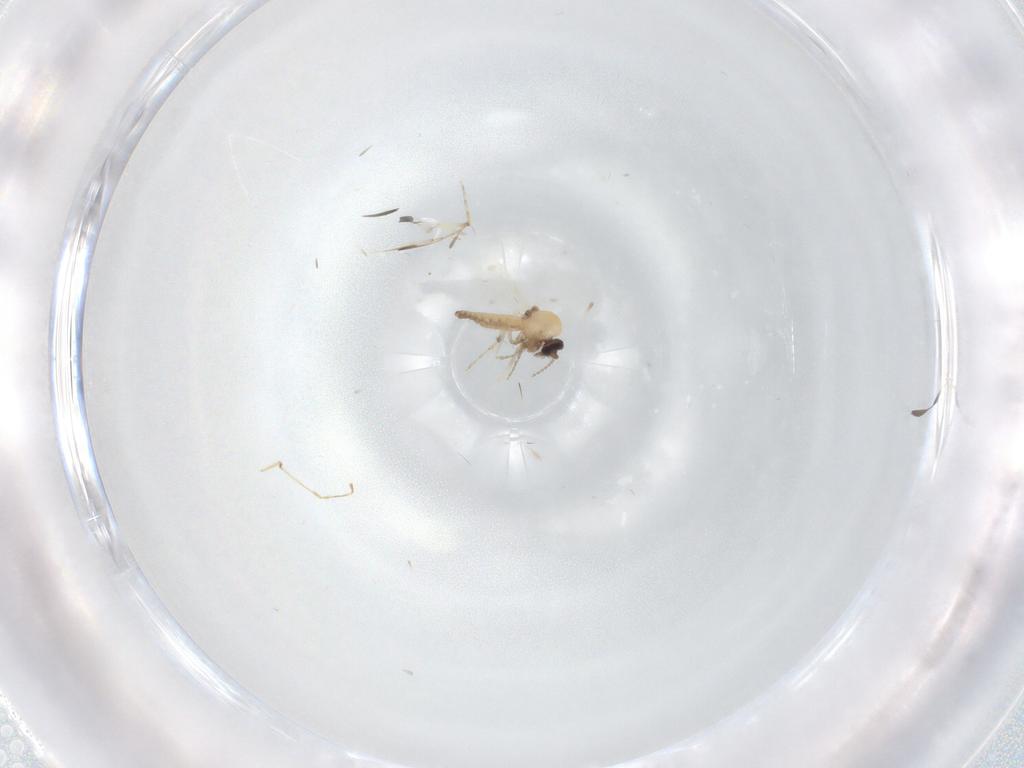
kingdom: Animalia
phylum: Arthropoda
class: Insecta
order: Diptera
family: Ceratopogonidae
